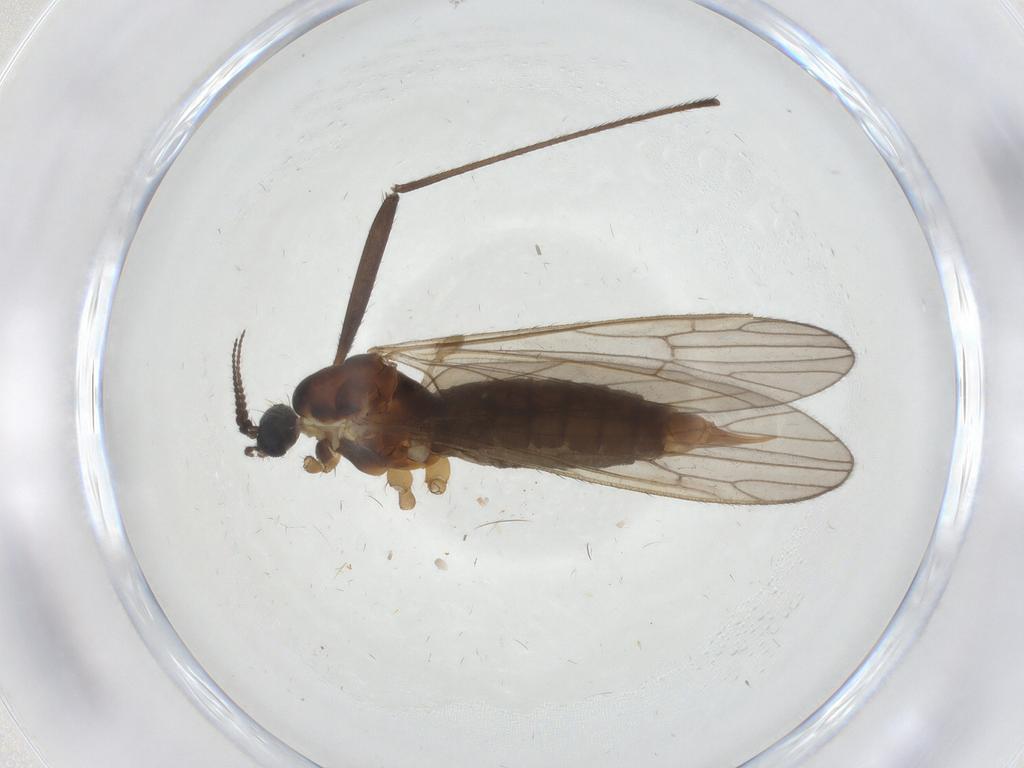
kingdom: Animalia
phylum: Arthropoda
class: Insecta
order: Diptera
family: Agromyzidae
